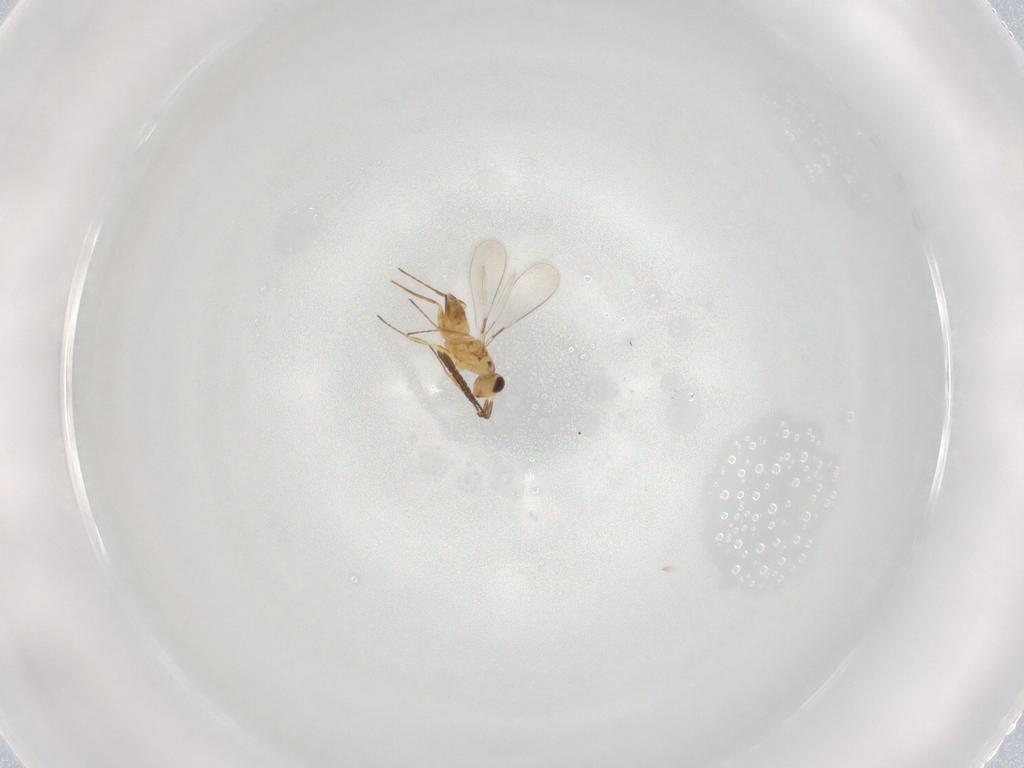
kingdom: Animalia
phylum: Arthropoda
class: Insecta
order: Hymenoptera
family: Mymaridae
